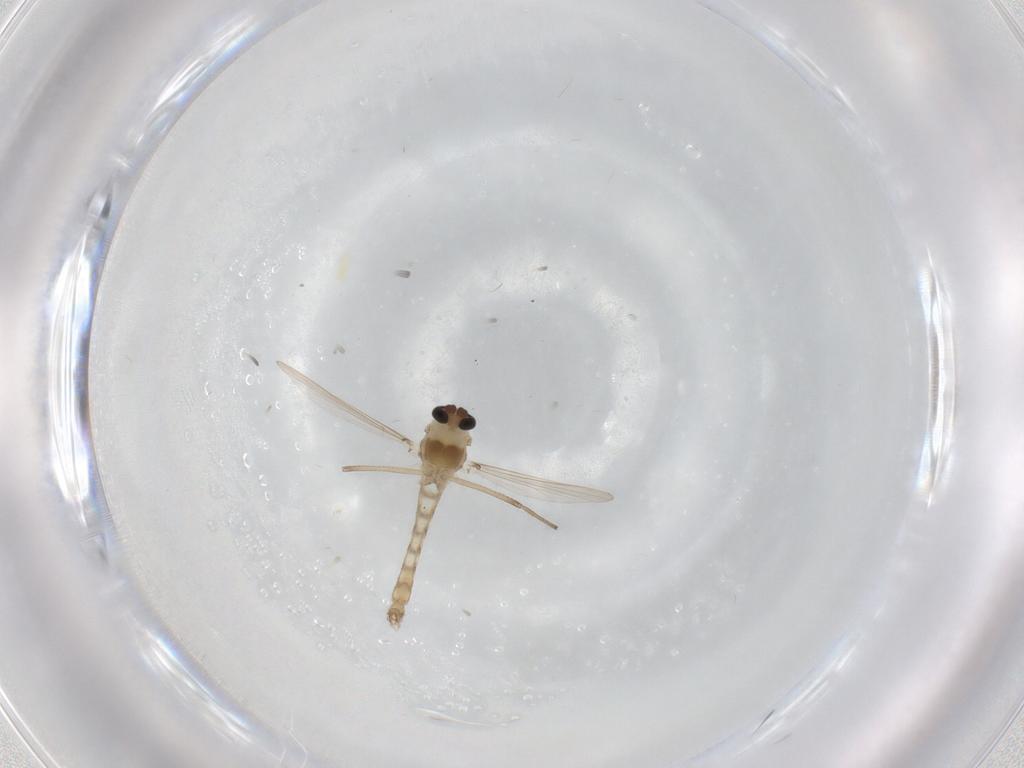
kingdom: Animalia
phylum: Arthropoda
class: Insecta
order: Diptera
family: Chironomidae
